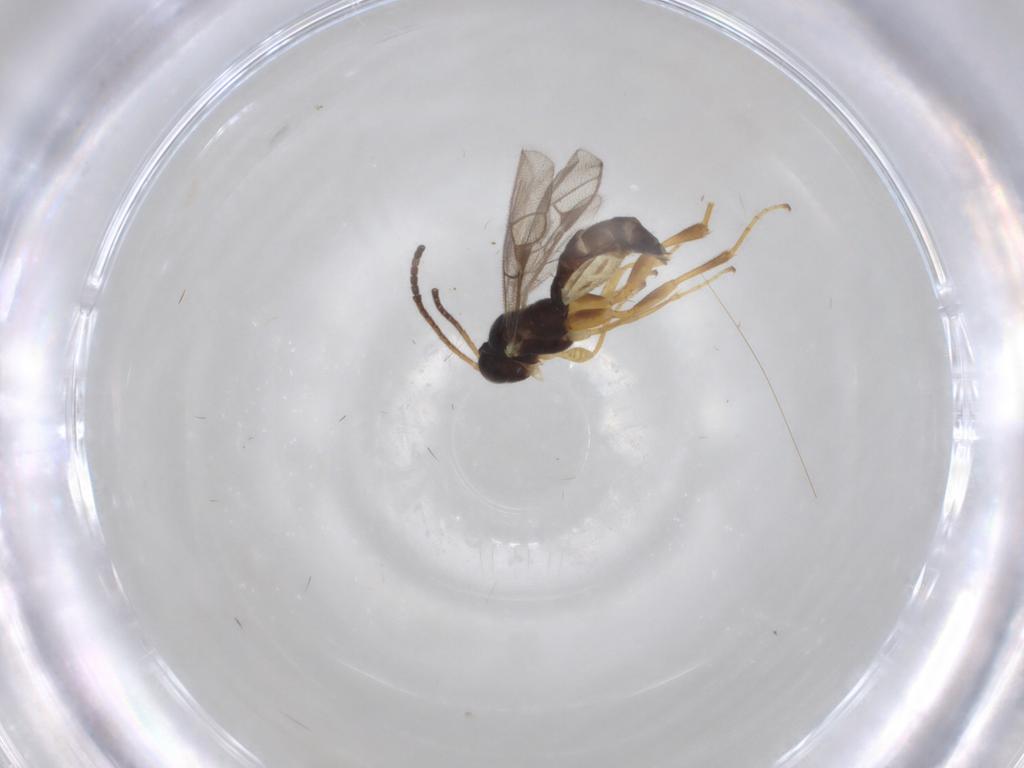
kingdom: Animalia
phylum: Arthropoda
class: Insecta
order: Hymenoptera
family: Ichneumonidae
